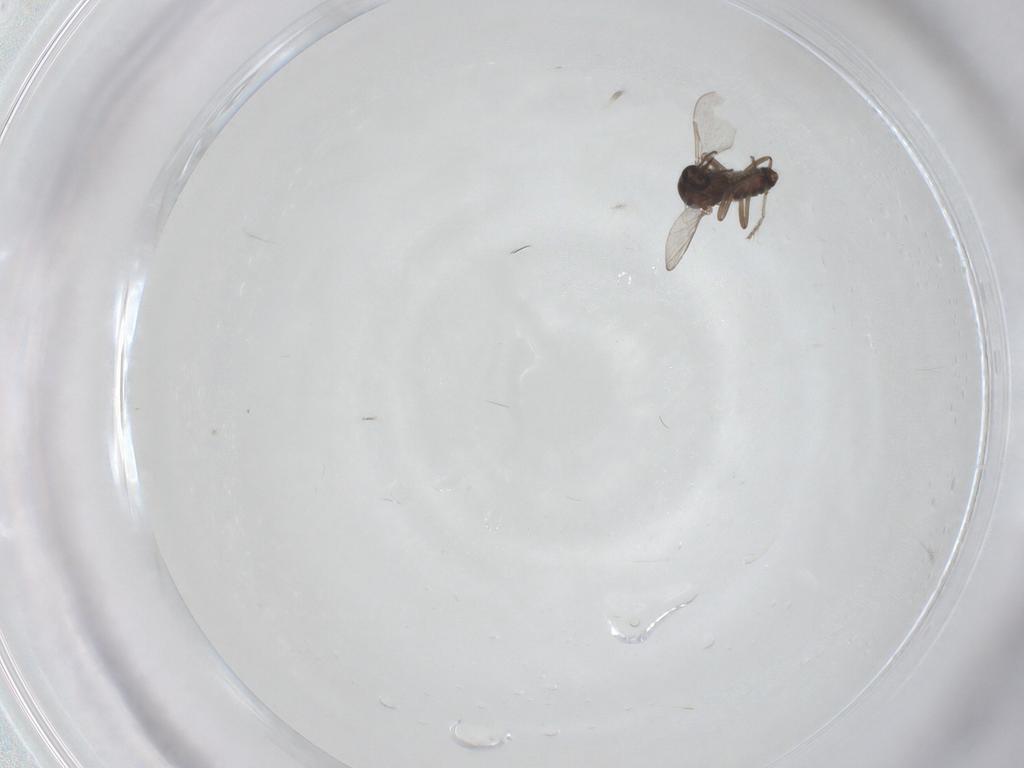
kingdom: Animalia
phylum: Arthropoda
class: Insecta
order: Diptera
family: Ceratopogonidae
